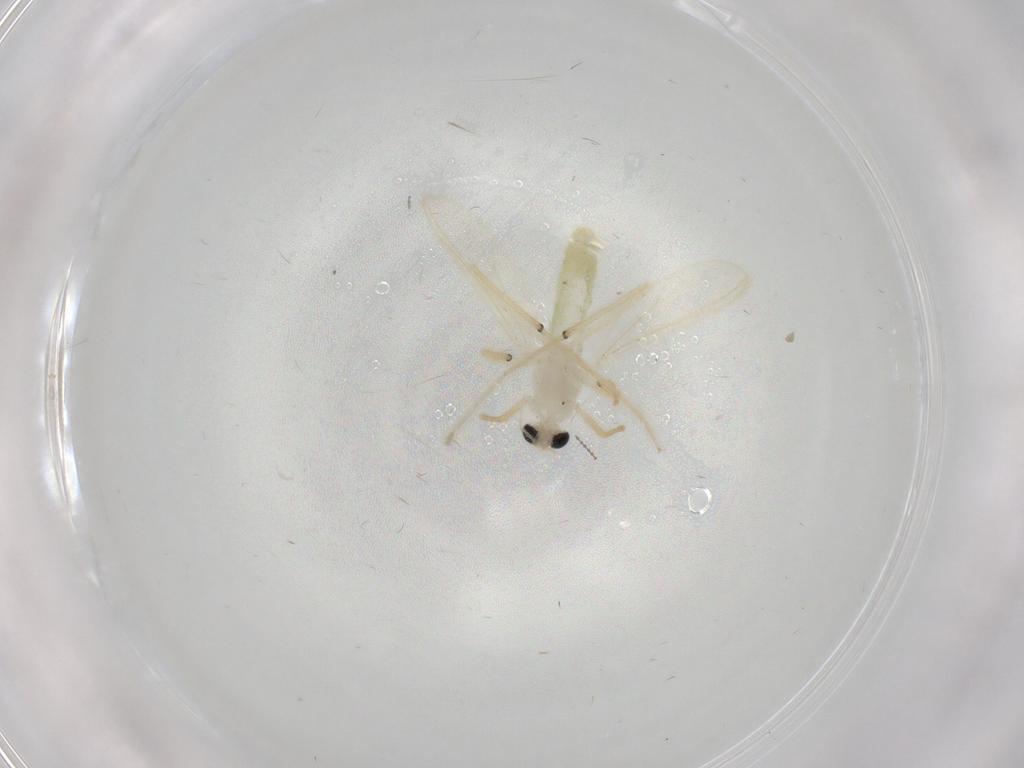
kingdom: Animalia
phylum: Arthropoda
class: Insecta
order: Diptera
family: Chironomidae
